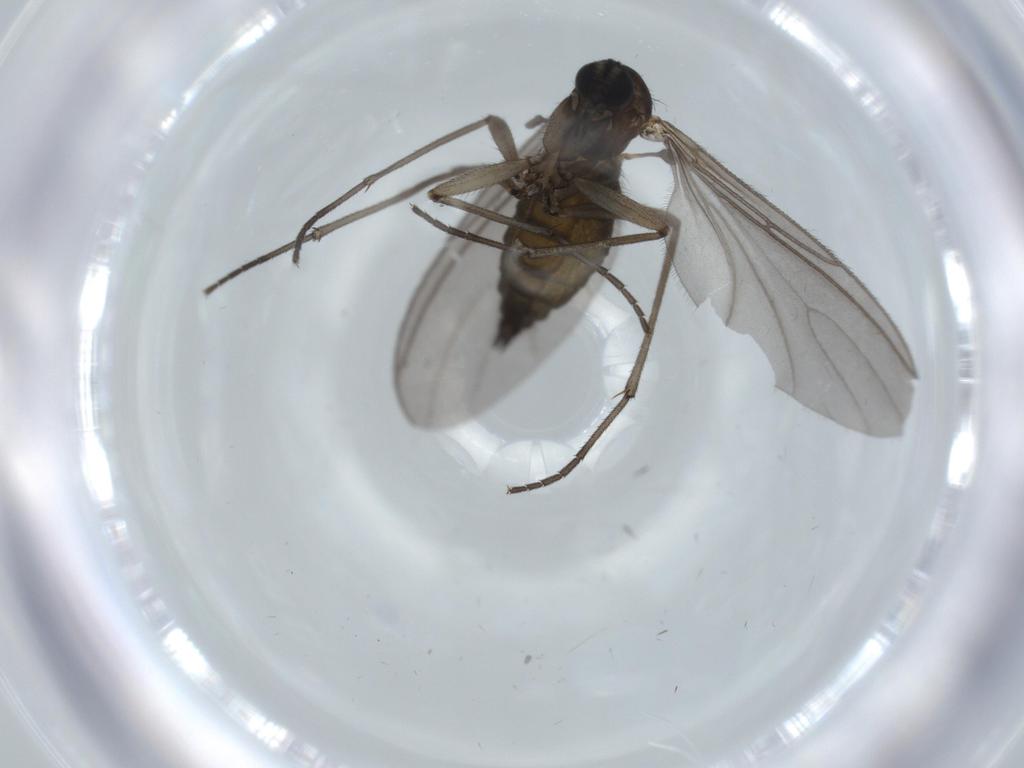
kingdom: Animalia
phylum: Arthropoda
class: Insecta
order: Diptera
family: Sciaridae
